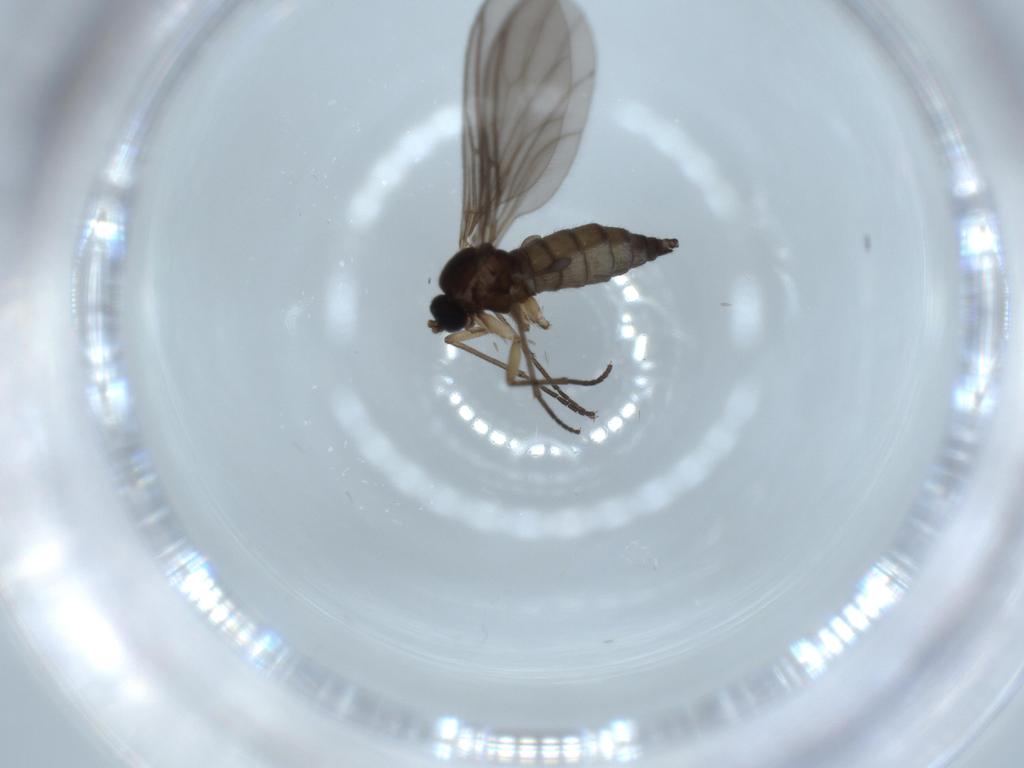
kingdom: Animalia
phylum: Arthropoda
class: Insecta
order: Diptera
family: Sciaridae
